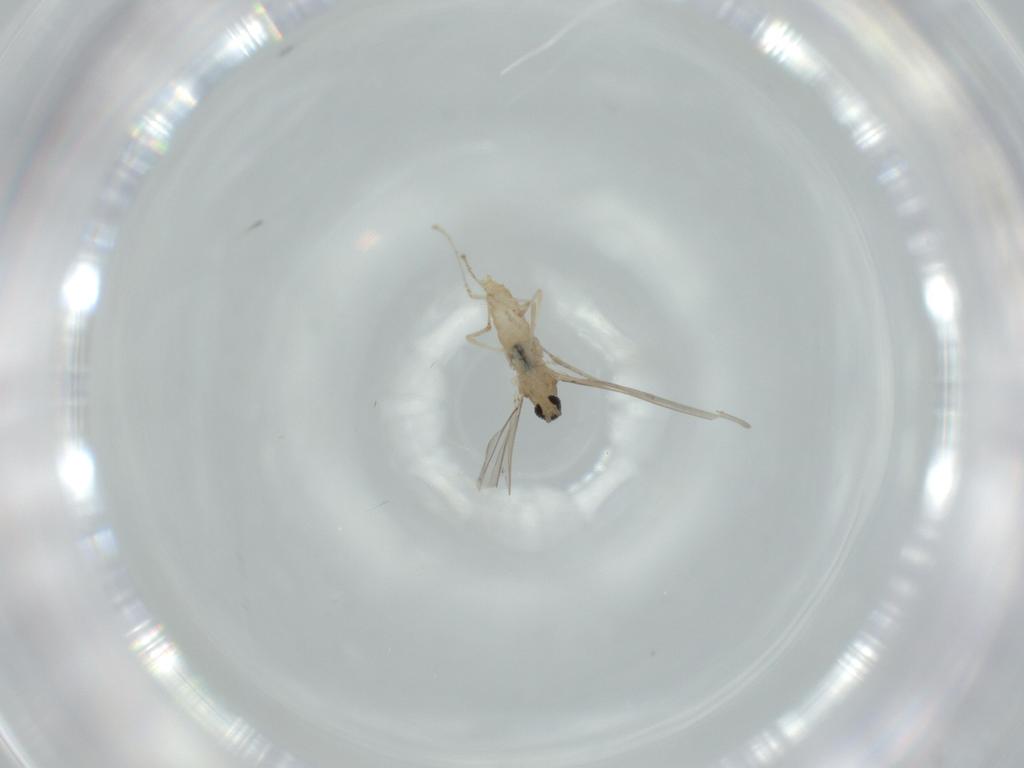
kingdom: Animalia
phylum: Arthropoda
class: Insecta
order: Diptera
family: Cecidomyiidae
